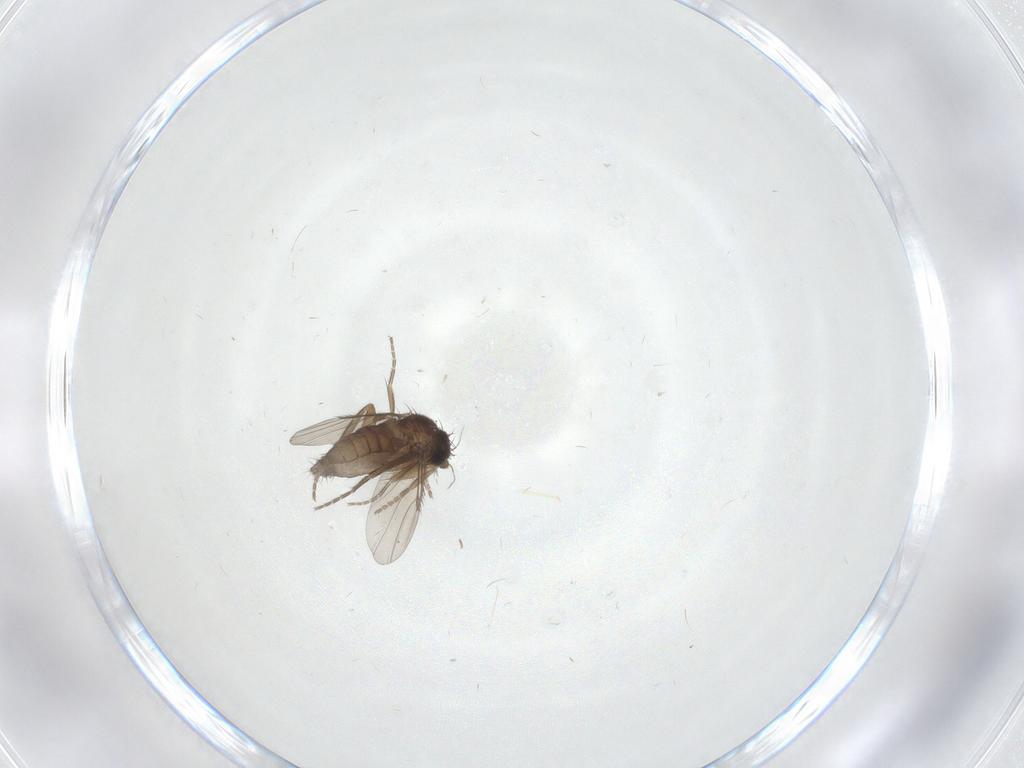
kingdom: Animalia
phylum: Arthropoda
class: Insecta
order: Diptera
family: Phoridae
